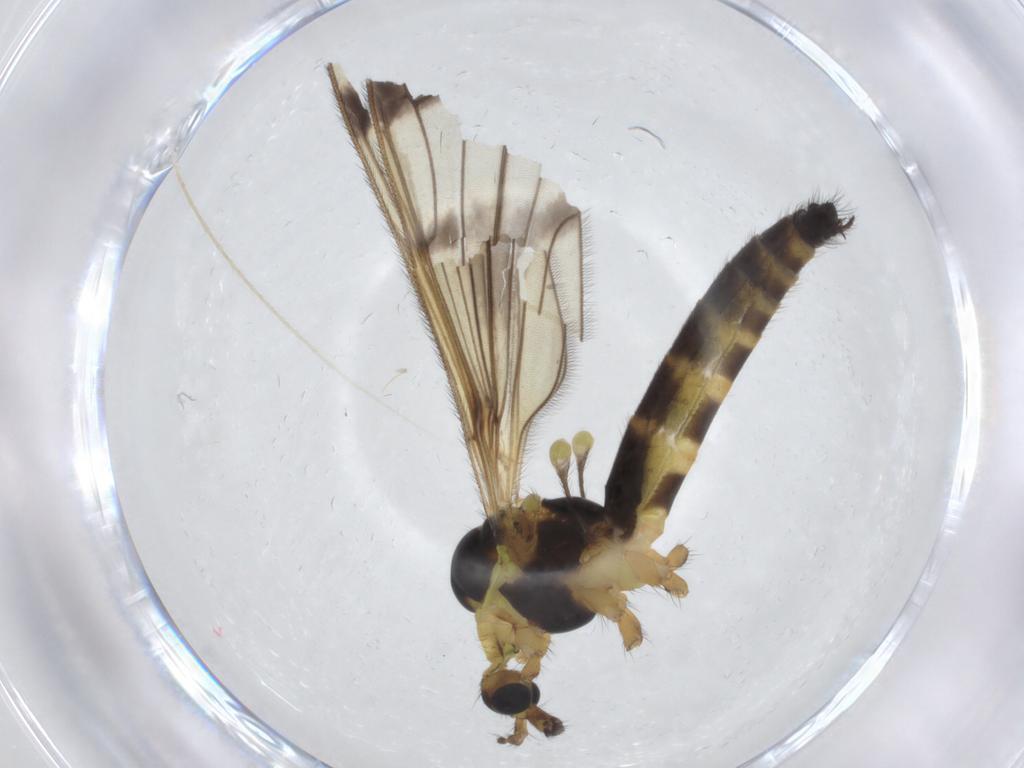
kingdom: Animalia
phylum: Arthropoda
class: Insecta
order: Diptera
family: Limoniidae
